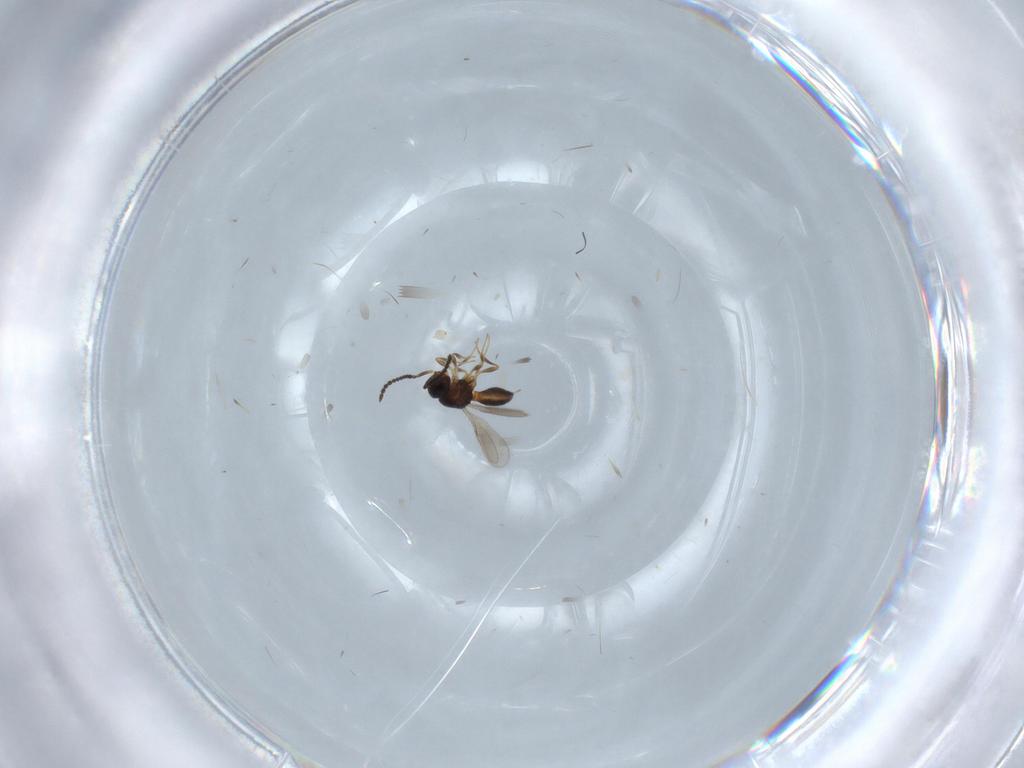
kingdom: Animalia
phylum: Arthropoda
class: Insecta
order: Hymenoptera
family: Scelionidae
